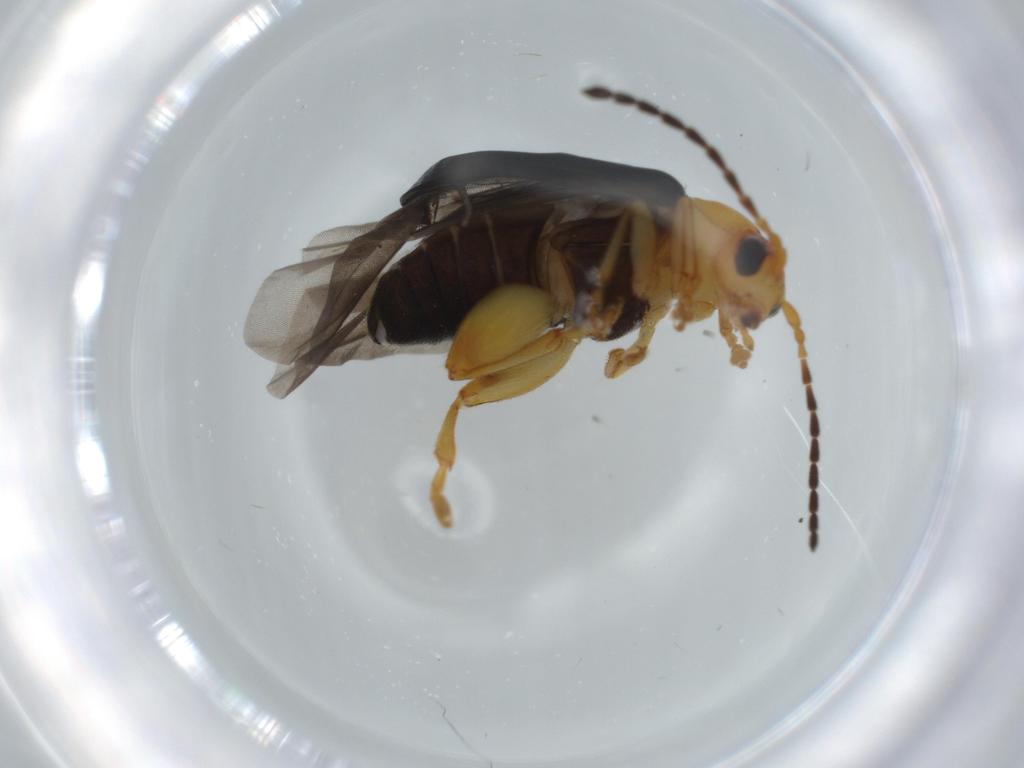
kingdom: Animalia
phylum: Arthropoda
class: Insecta
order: Coleoptera
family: Chrysomelidae
